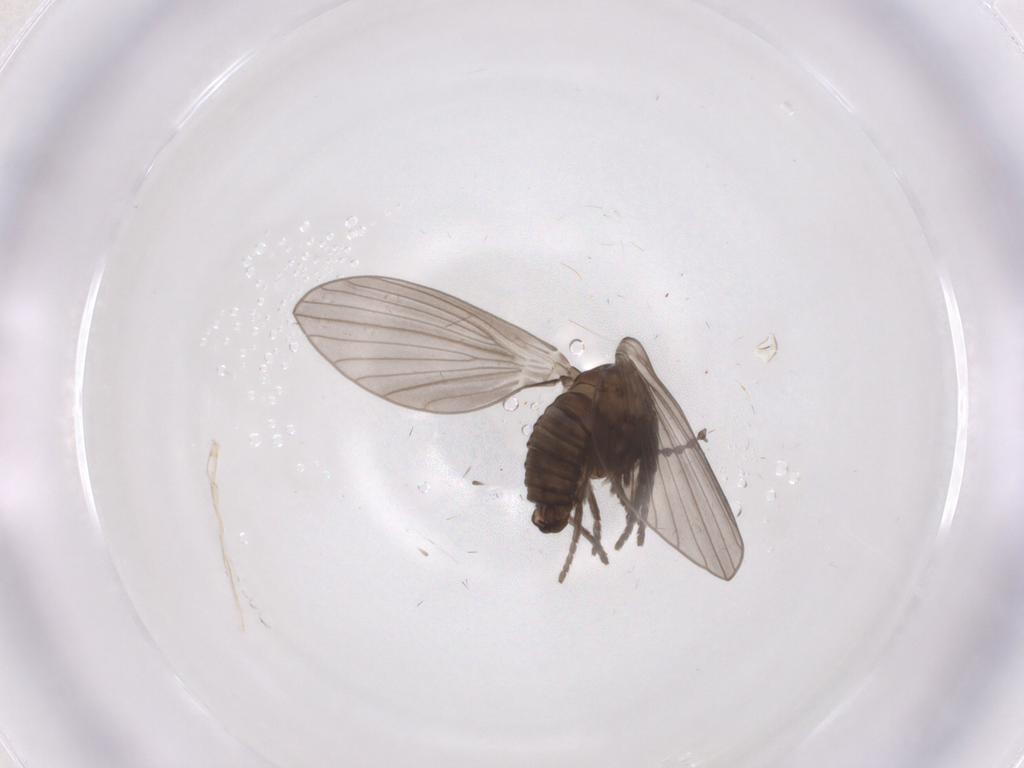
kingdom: Animalia
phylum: Arthropoda
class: Insecta
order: Diptera
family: Psychodidae
